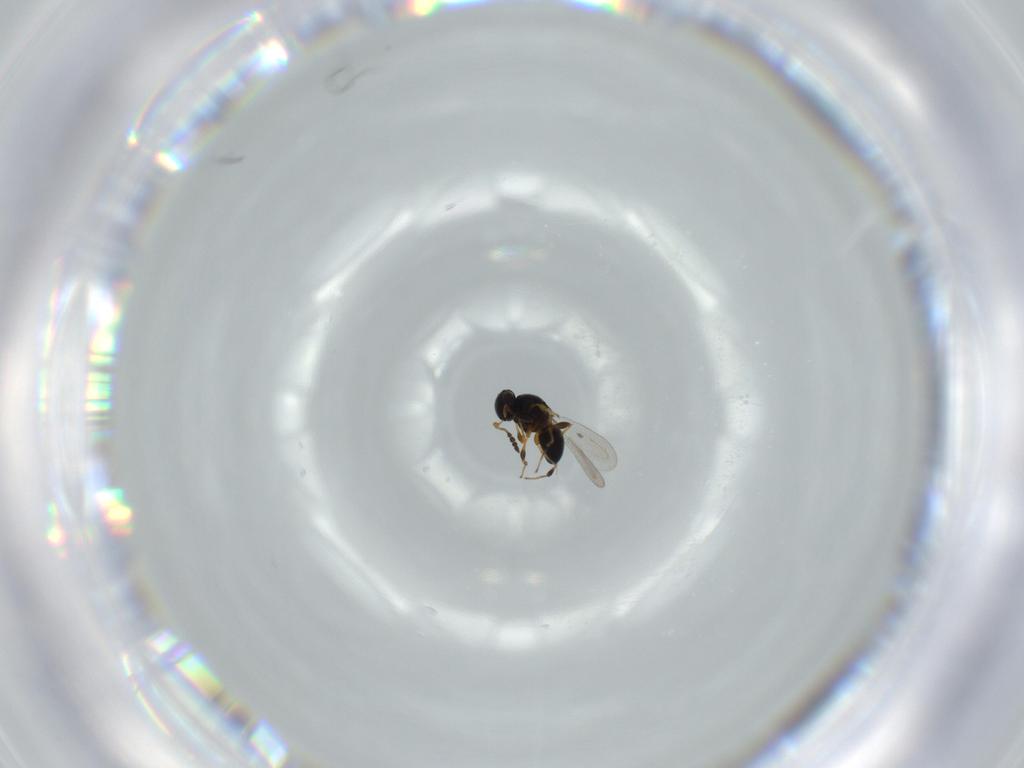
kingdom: Animalia
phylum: Arthropoda
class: Insecta
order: Hymenoptera
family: Platygastridae
